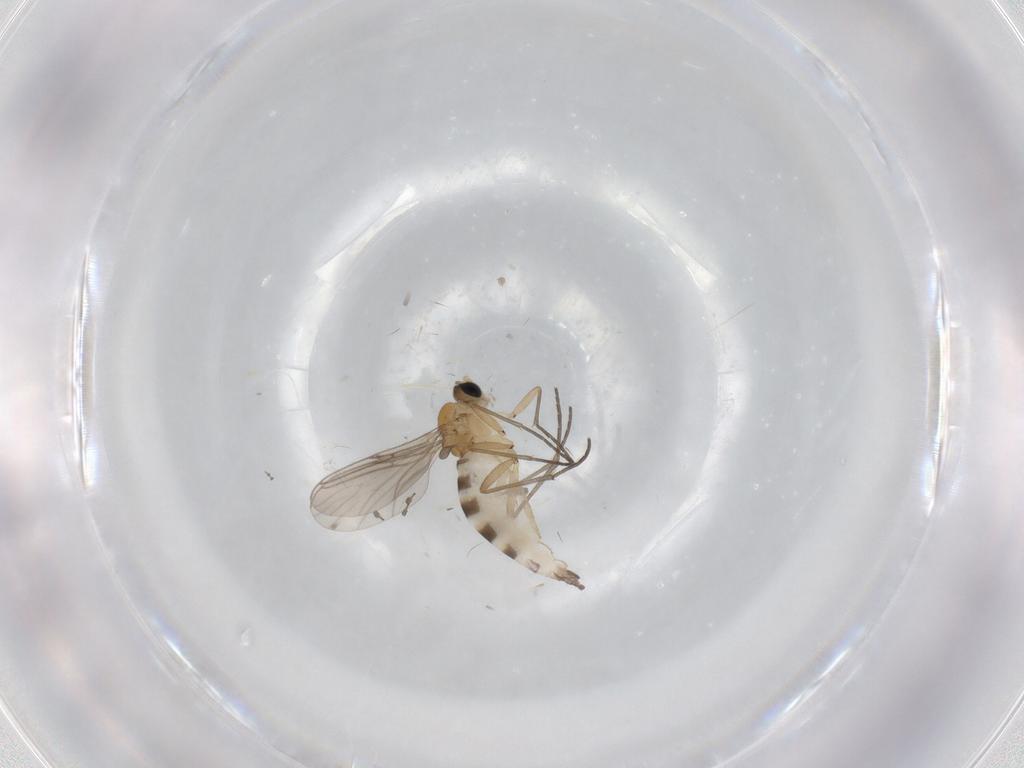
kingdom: Animalia
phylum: Arthropoda
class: Insecta
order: Diptera
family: Cecidomyiidae
